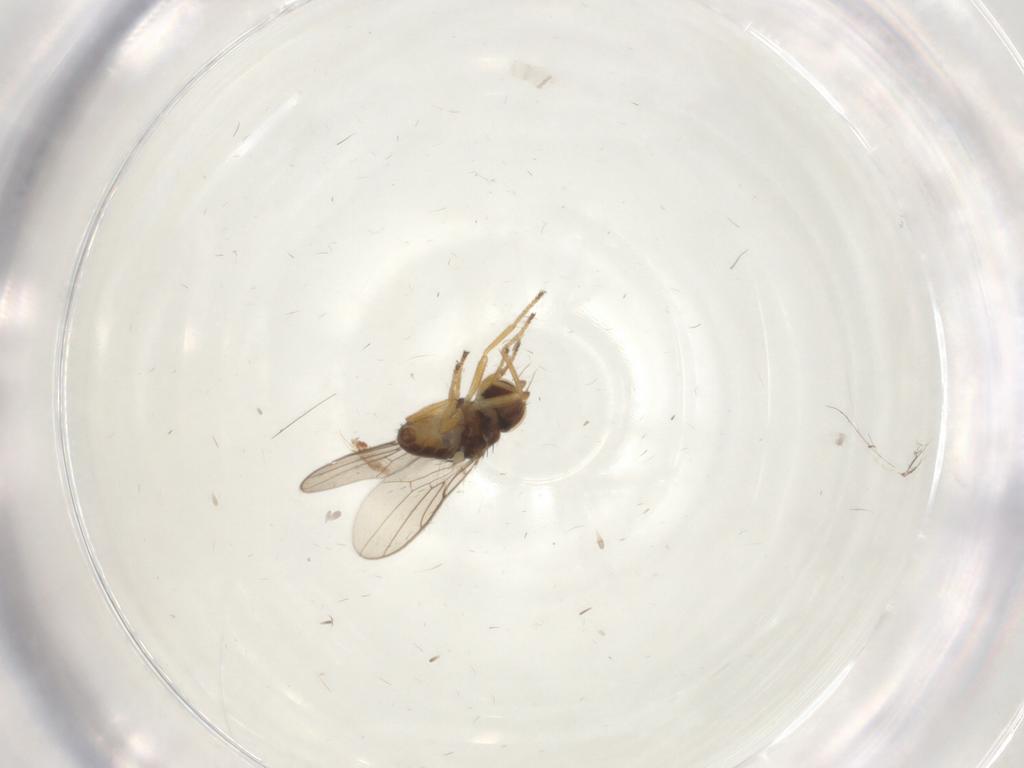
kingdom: Animalia
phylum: Arthropoda
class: Insecta
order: Diptera
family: Chloropidae
